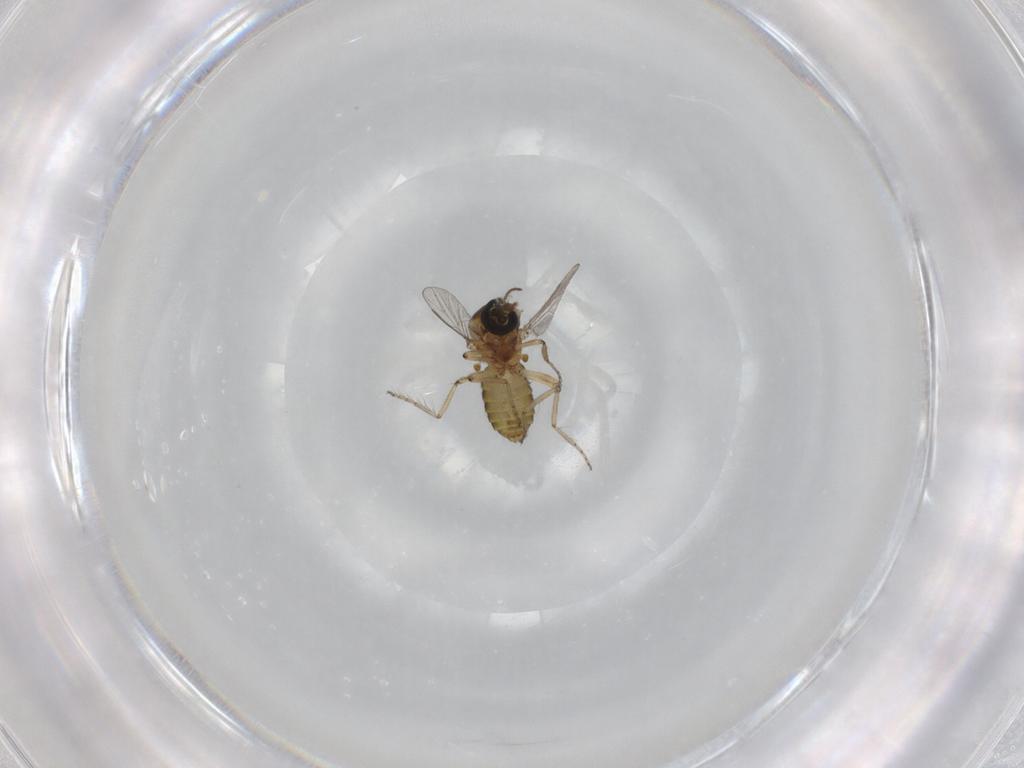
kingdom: Animalia
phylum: Arthropoda
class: Insecta
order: Diptera
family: Ceratopogonidae
